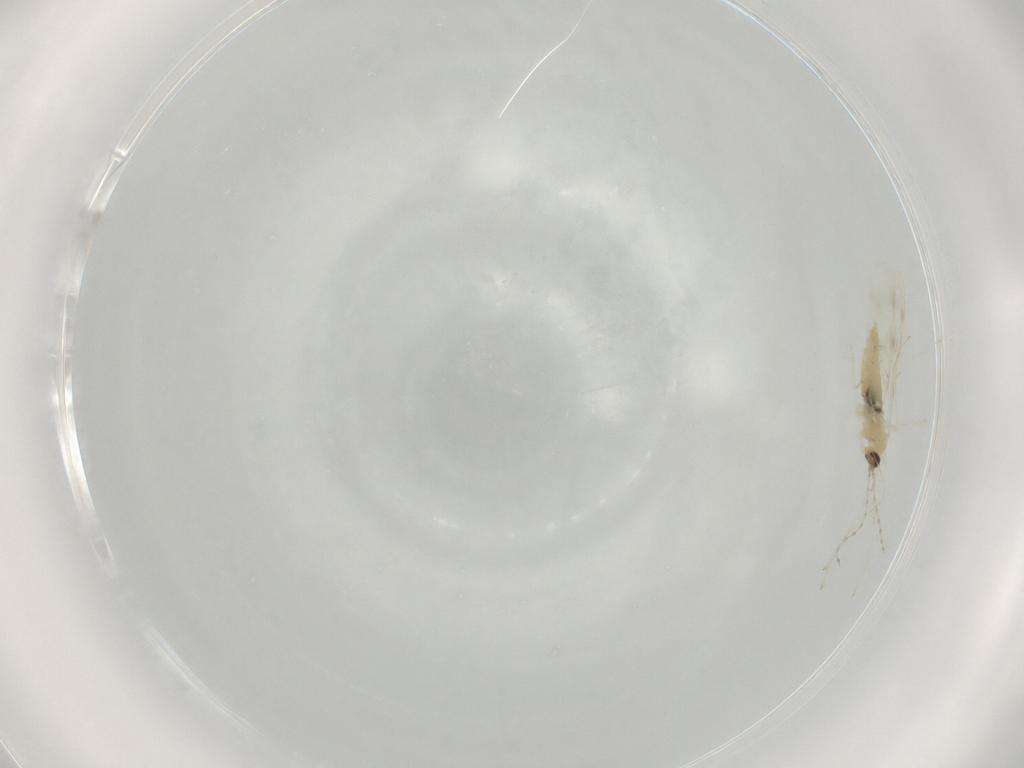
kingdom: Animalia
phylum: Arthropoda
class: Insecta
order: Diptera
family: Cecidomyiidae
